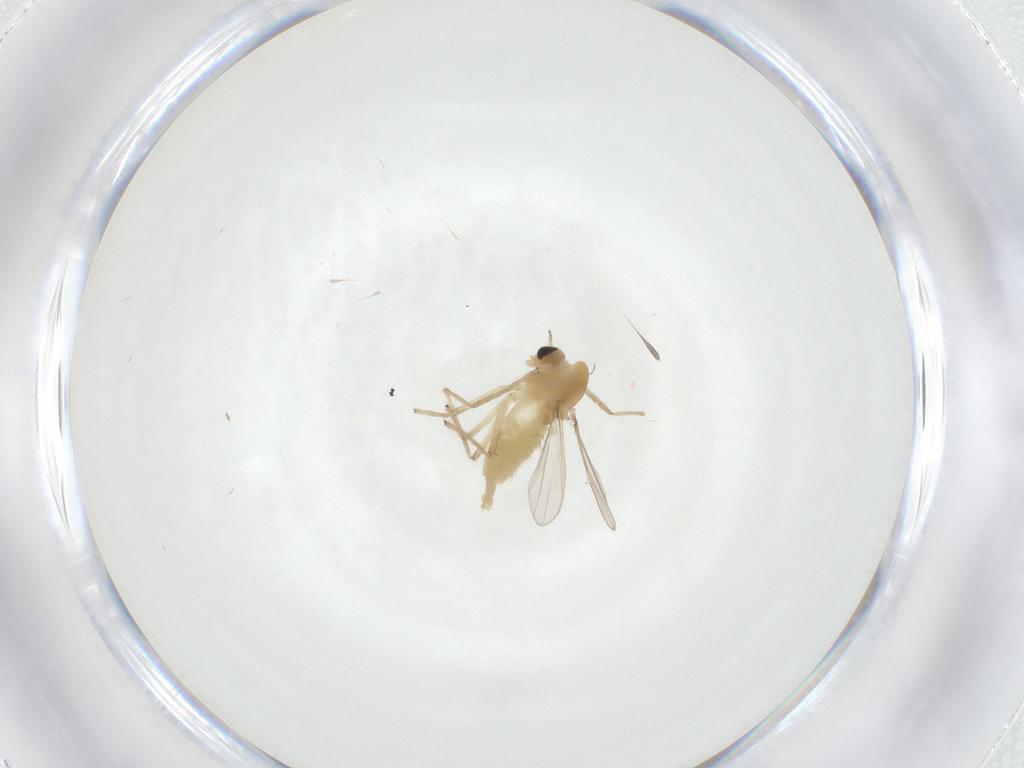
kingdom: Animalia
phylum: Arthropoda
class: Insecta
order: Diptera
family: Chironomidae
